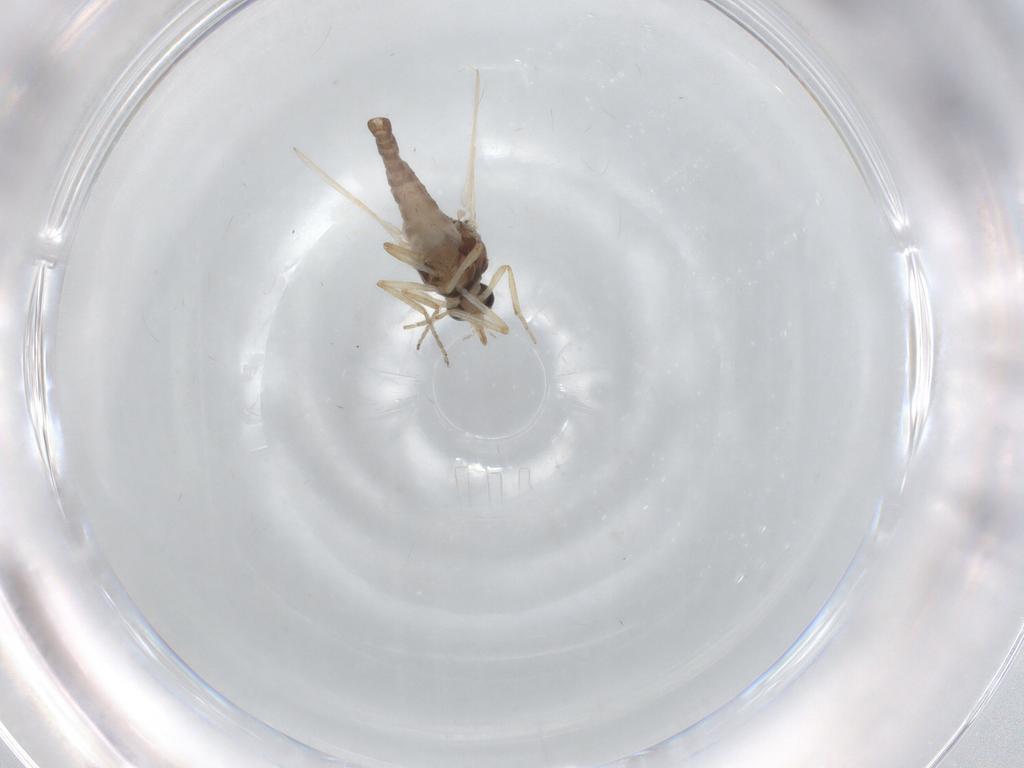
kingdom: Animalia
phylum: Arthropoda
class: Insecta
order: Diptera
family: Ceratopogonidae
